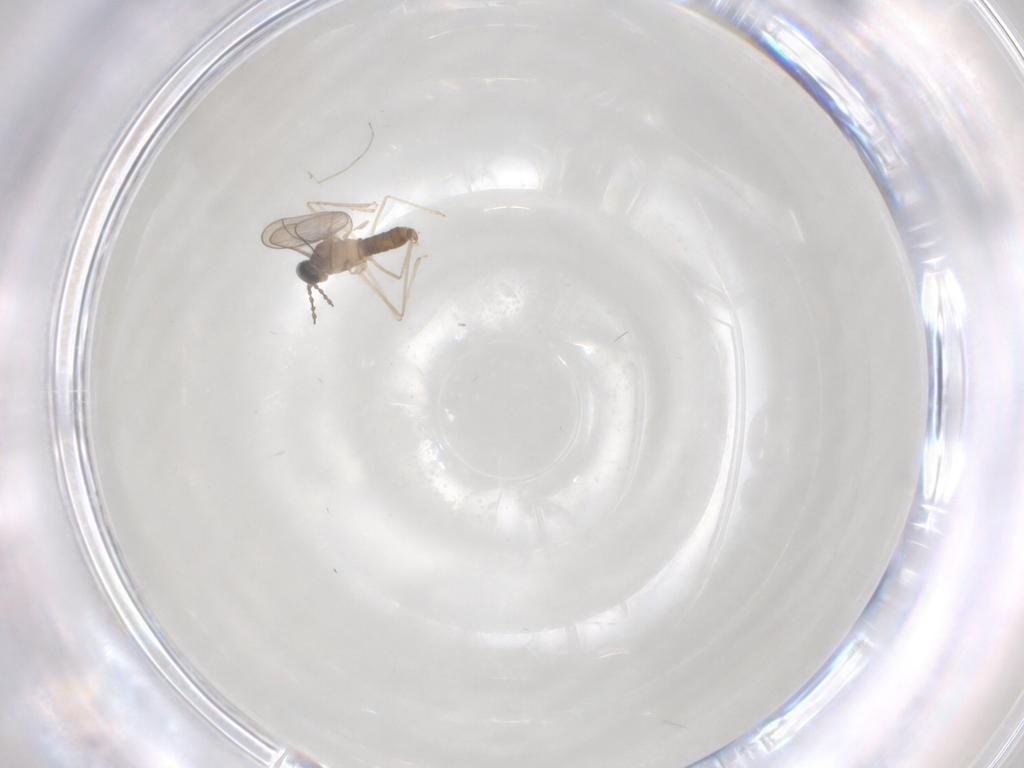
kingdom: Animalia
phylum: Arthropoda
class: Insecta
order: Diptera
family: Cecidomyiidae
